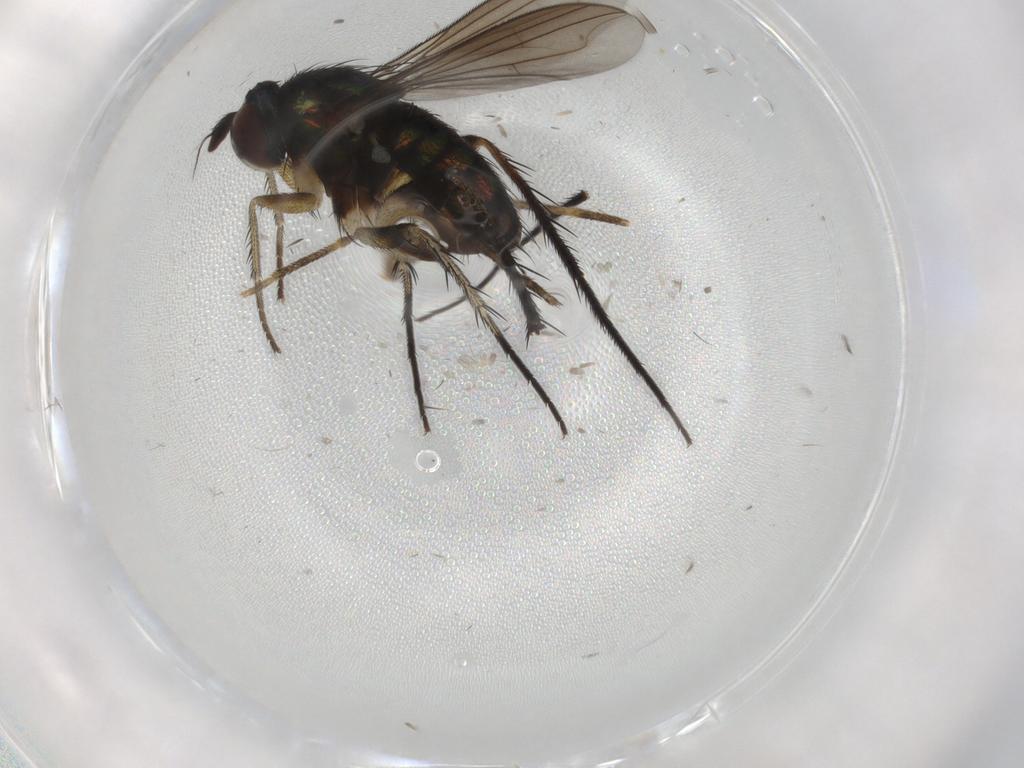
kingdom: Animalia
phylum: Arthropoda
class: Insecta
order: Diptera
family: Dolichopodidae
